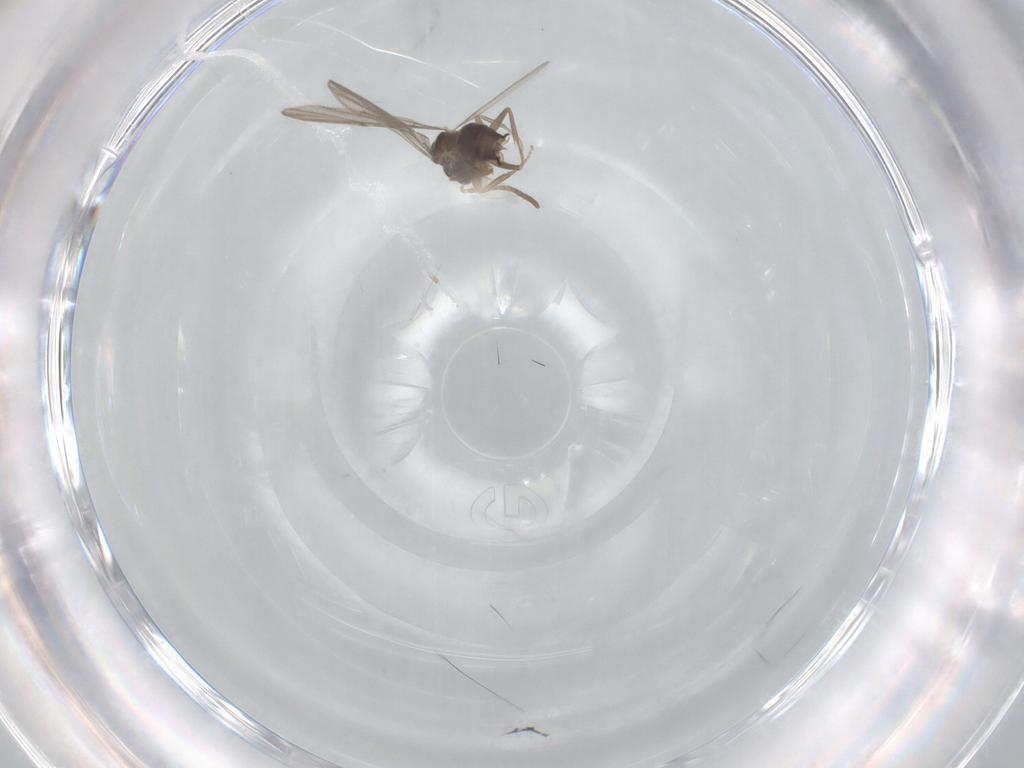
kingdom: Animalia
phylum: Arthropoda
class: Insecta
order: Hymenoptera
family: Formicidae
